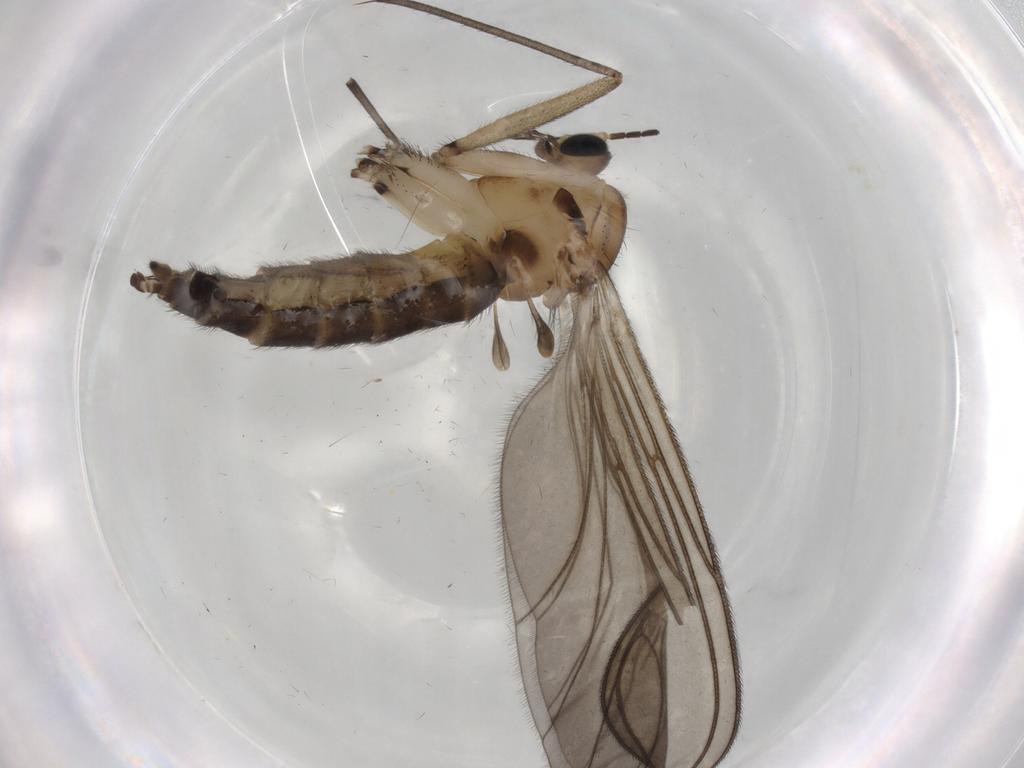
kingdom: Animalia
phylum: Arthropoda
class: Insecta
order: Diptera
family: Sciaridae
